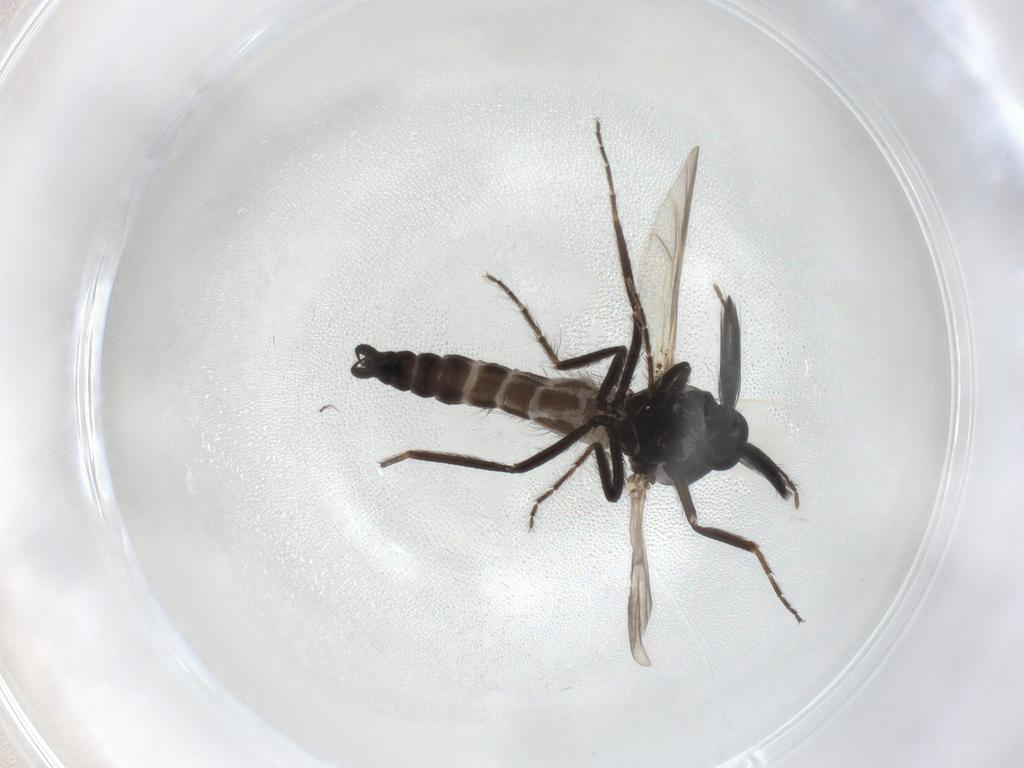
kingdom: Animalia
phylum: Arthropoda
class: Insecta
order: Diptera
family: Ceratopogonidae
